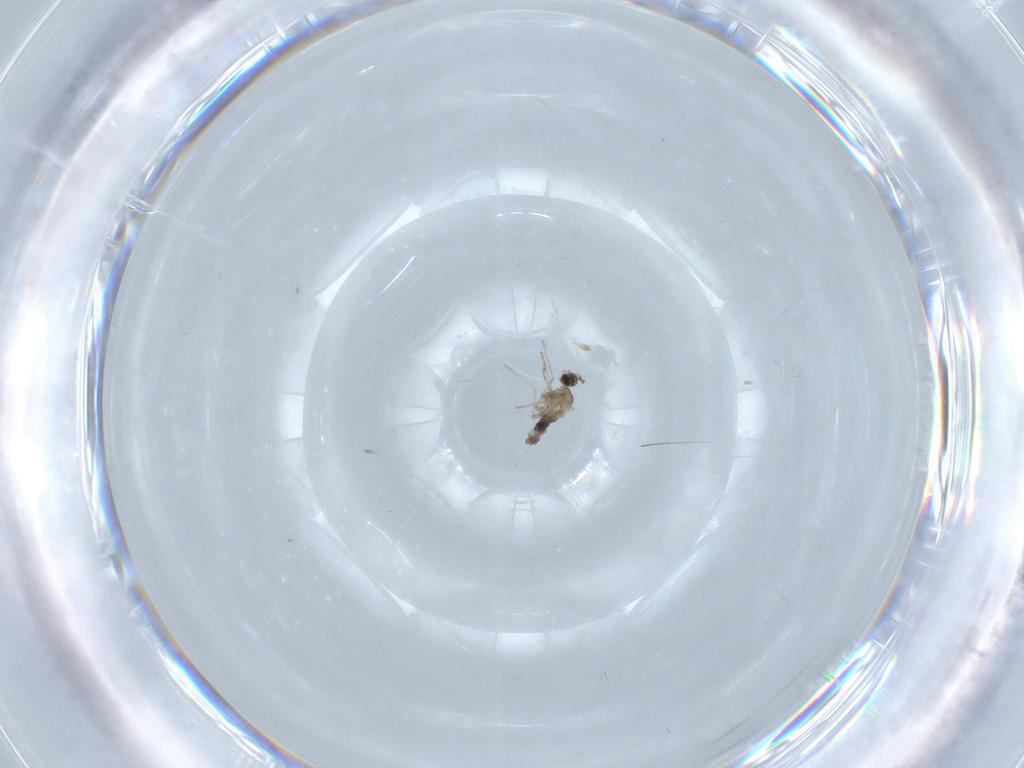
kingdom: Animalia
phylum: Arthropoda
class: Insecta
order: Diptera
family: Cecidomyiidae
